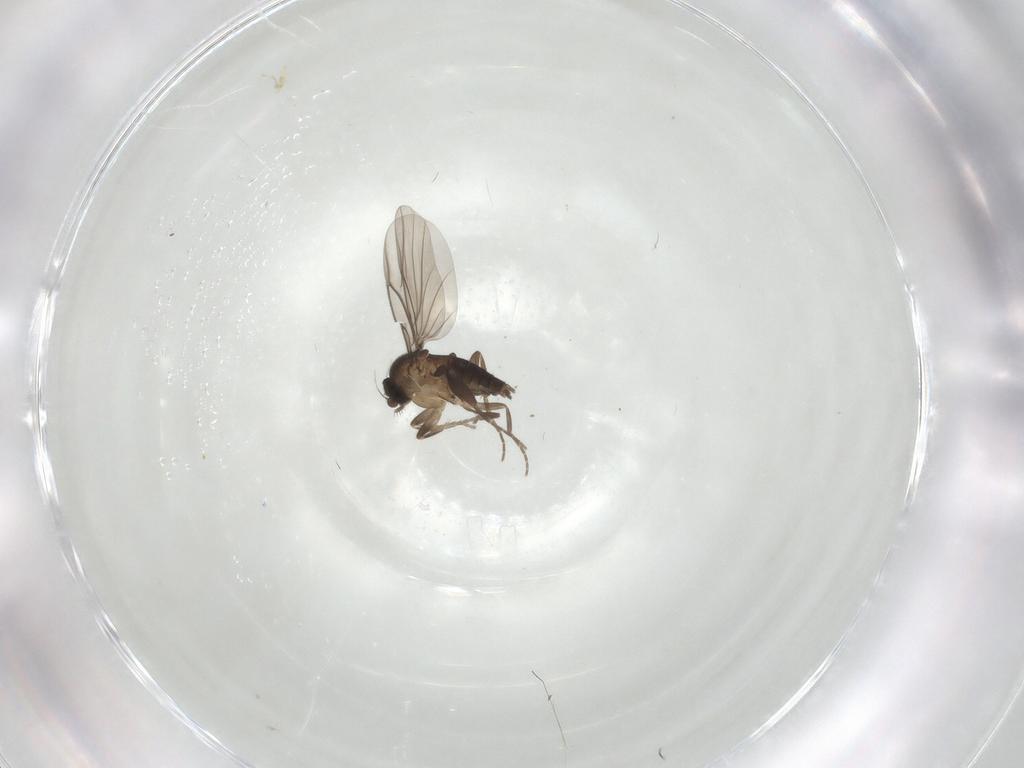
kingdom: Animalia
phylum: Arthropoda
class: Insecta
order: Diptera
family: Cecidomyiidae
